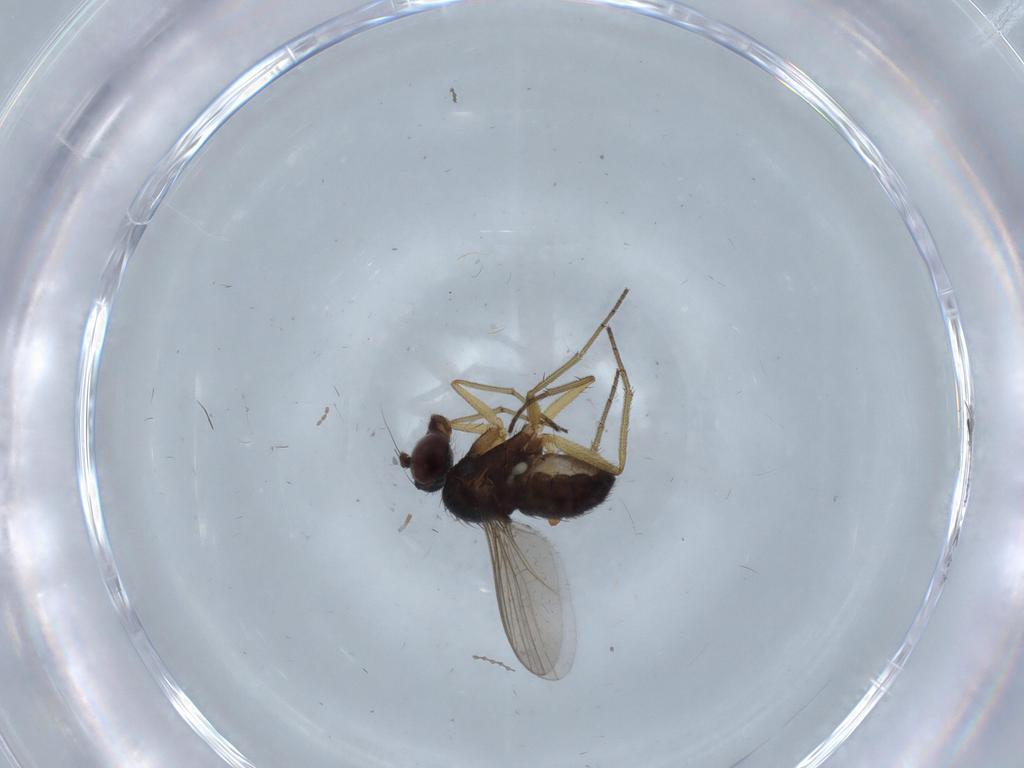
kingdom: Animalia
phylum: Arthropoda
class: Insecta
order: Diptera
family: Dolichopodidae
